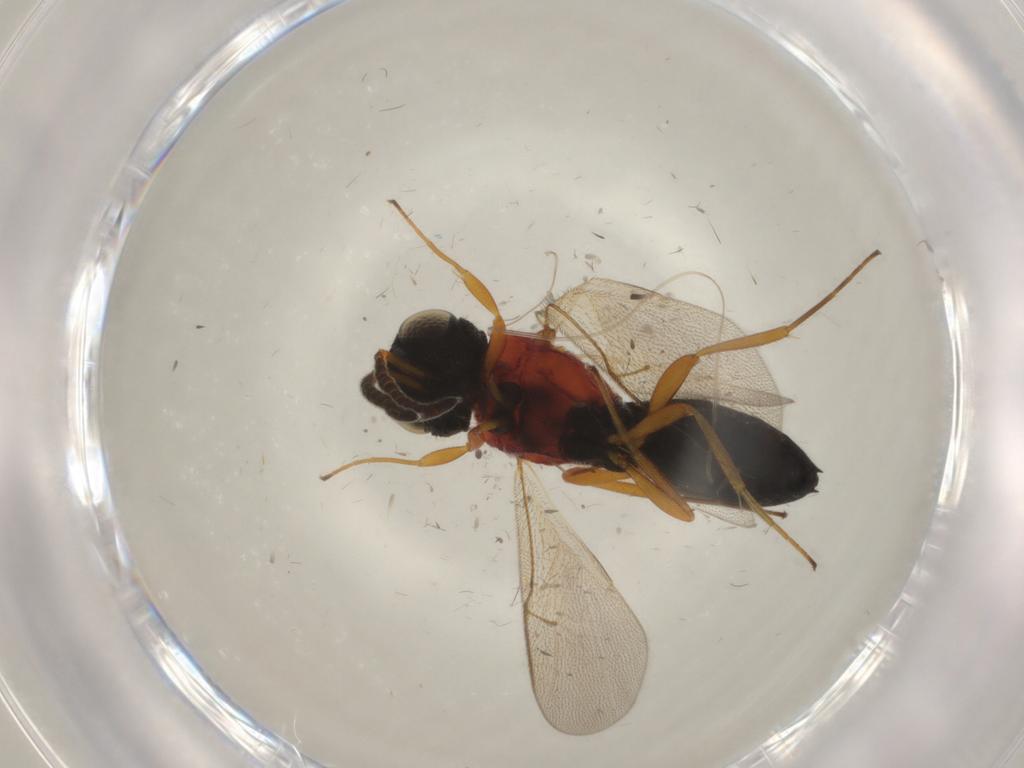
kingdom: Animalia
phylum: Arthropoda
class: Insecta
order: Hymenoptera
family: Scelionidae
